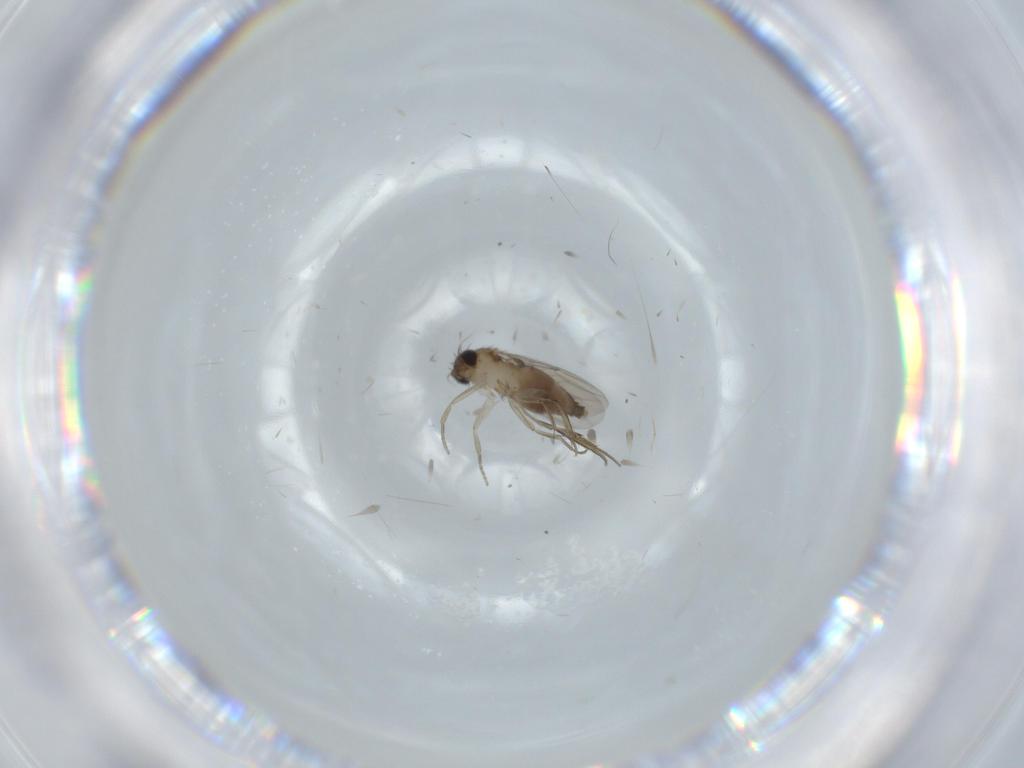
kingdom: Animalia
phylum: Arthropoda
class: Insecta
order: Diptera
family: Phoridae
